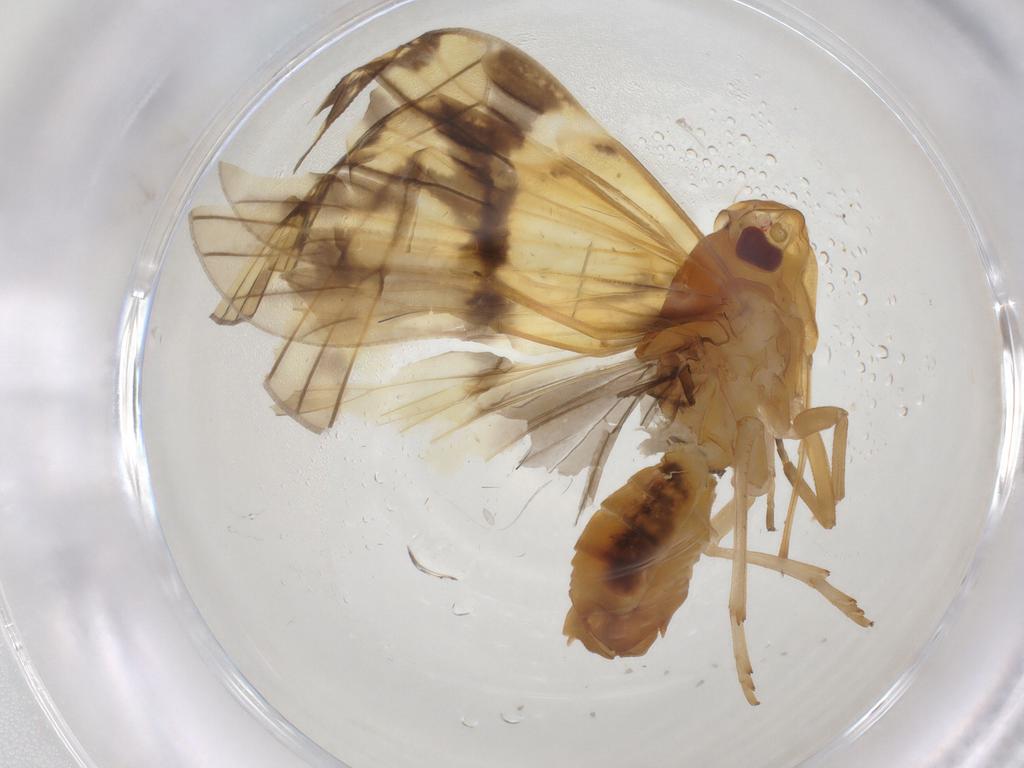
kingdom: Animalia
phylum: Arthropoda
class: Insecta
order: Hemiptera
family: Cixiidae
